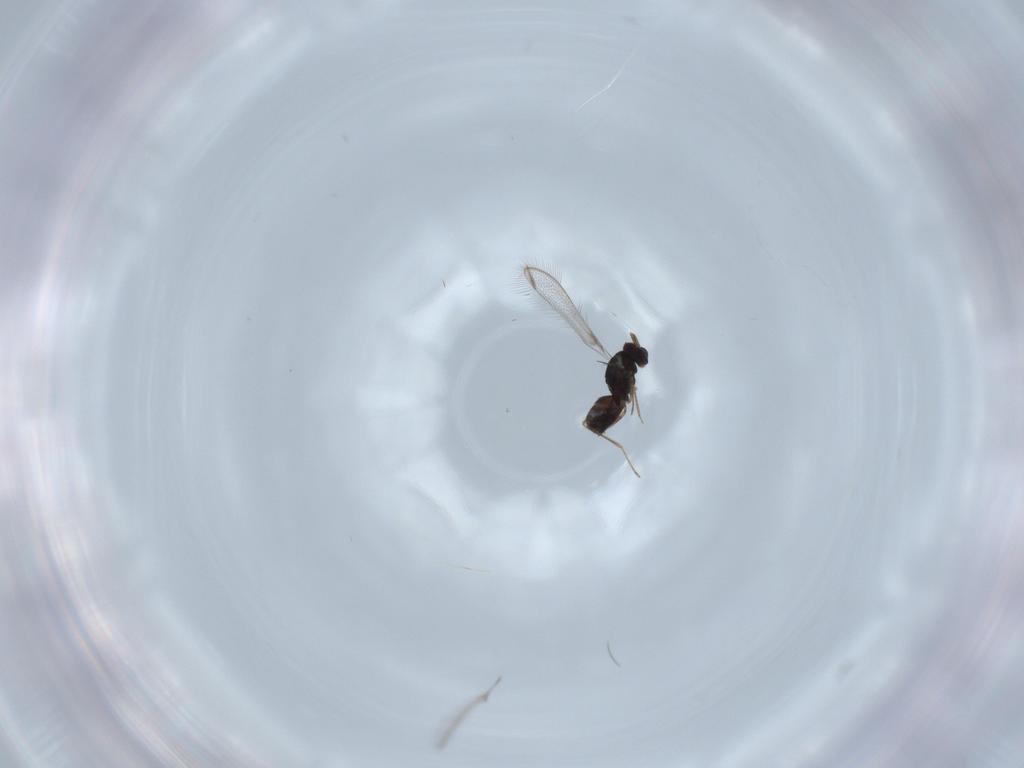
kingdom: Animalia
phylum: Arthropoda
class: Insecta
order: Hymenoptera
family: Mymaridae
